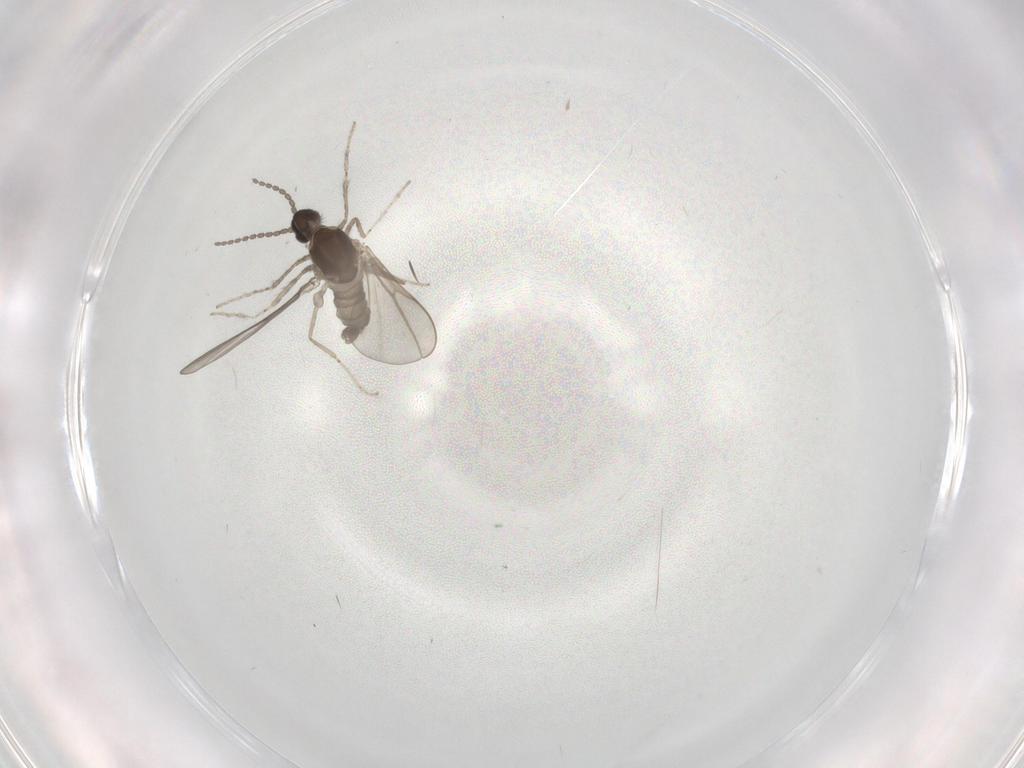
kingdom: Animalia
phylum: Arthropoda
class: Insecta
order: Diptera
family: Cecidomyiidae
